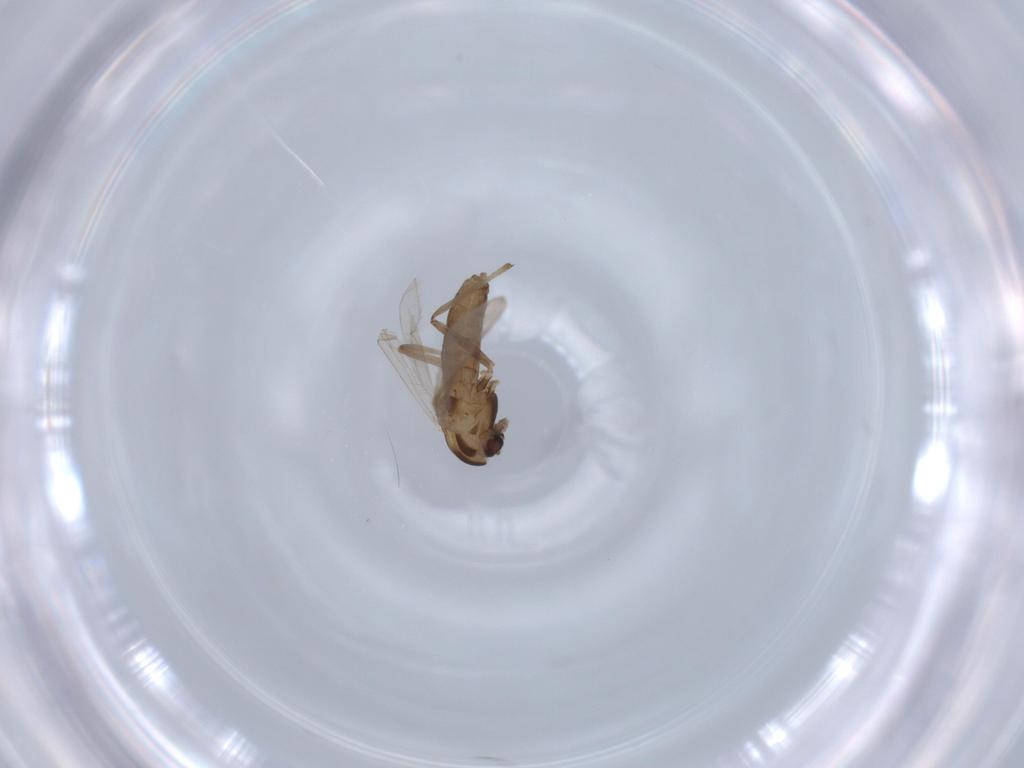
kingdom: Animalia
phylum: Arthropoda
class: Insecta
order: Diptera
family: Chironomidae
